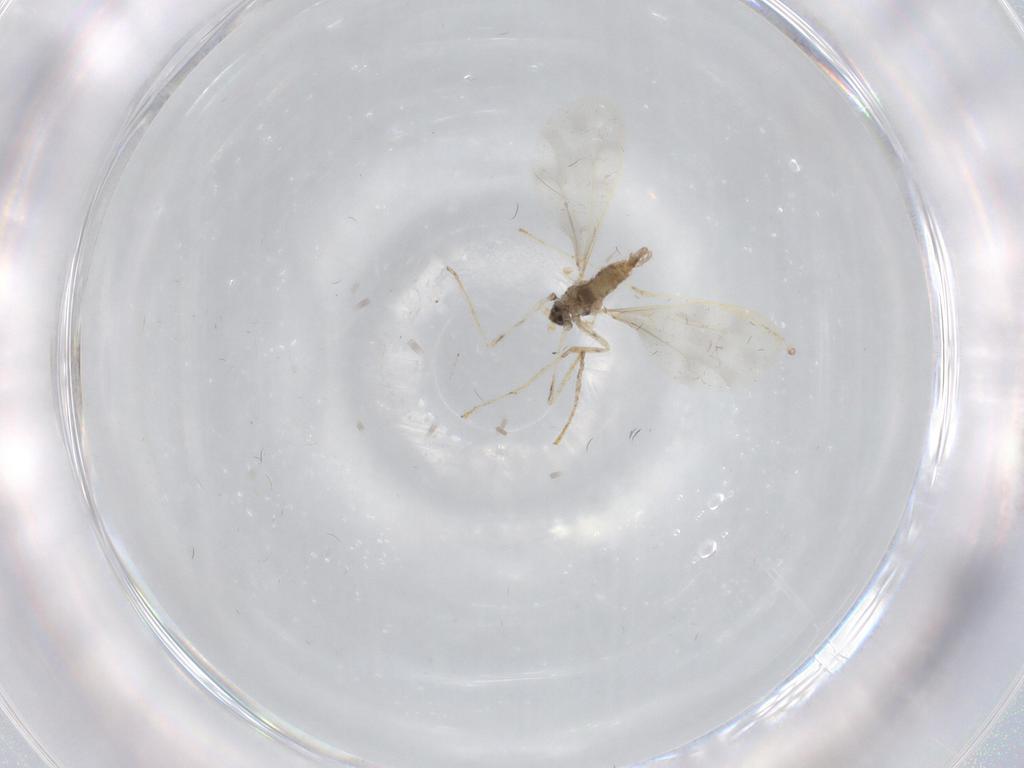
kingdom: Animalia
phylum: Arthropoda
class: Insecta
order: Diptera
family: Cecidomyiidae
